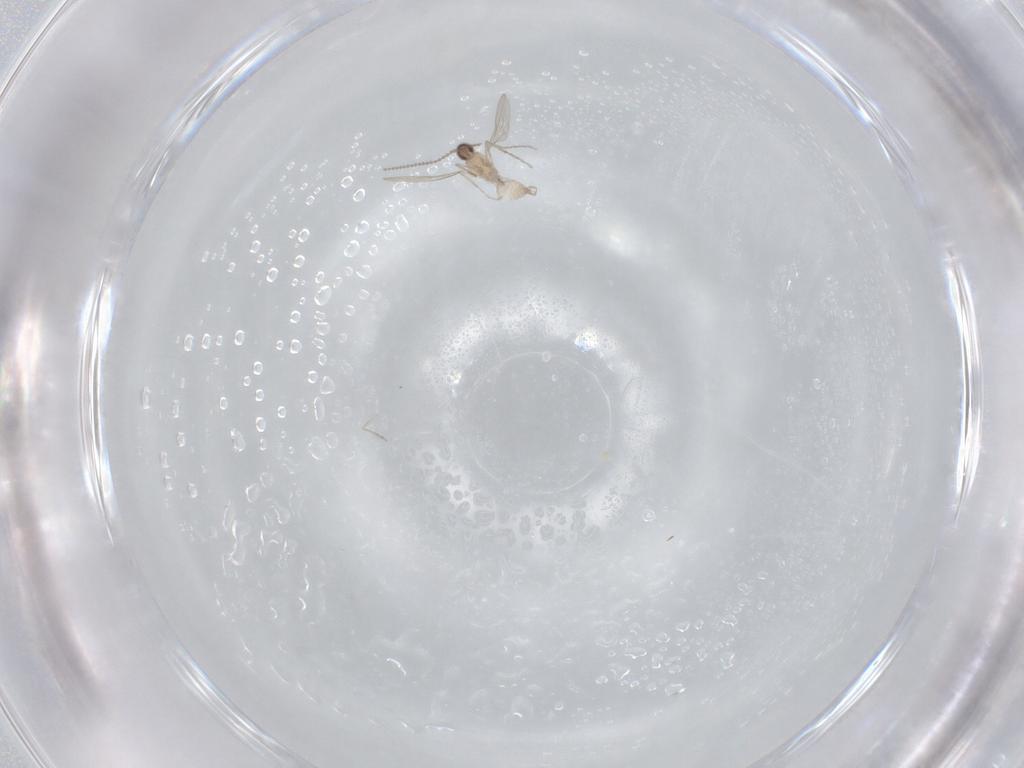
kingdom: Animalia
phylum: Arthropoda
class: Insecta
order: Diptera
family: Cecidomyiidae
